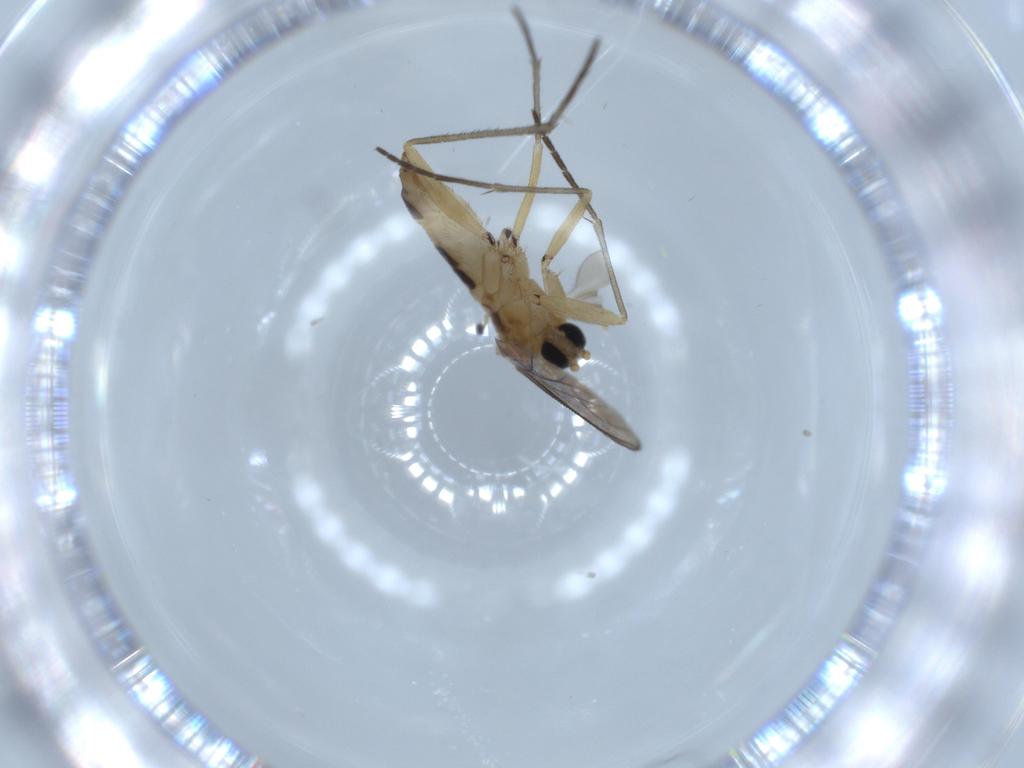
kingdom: Animalia
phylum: Arthropoda
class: Insecta
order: Diptera
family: Sciaridae
